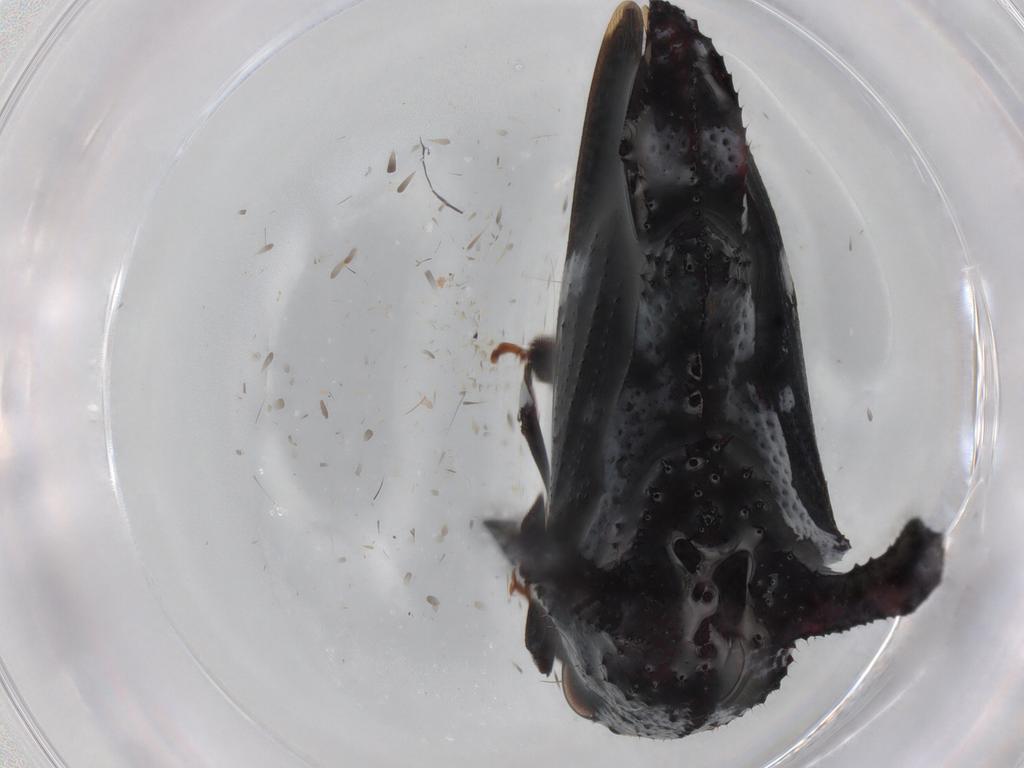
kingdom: Animalia
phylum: Arthropoda
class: Insecta
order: Hemiptera
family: Membracidae
